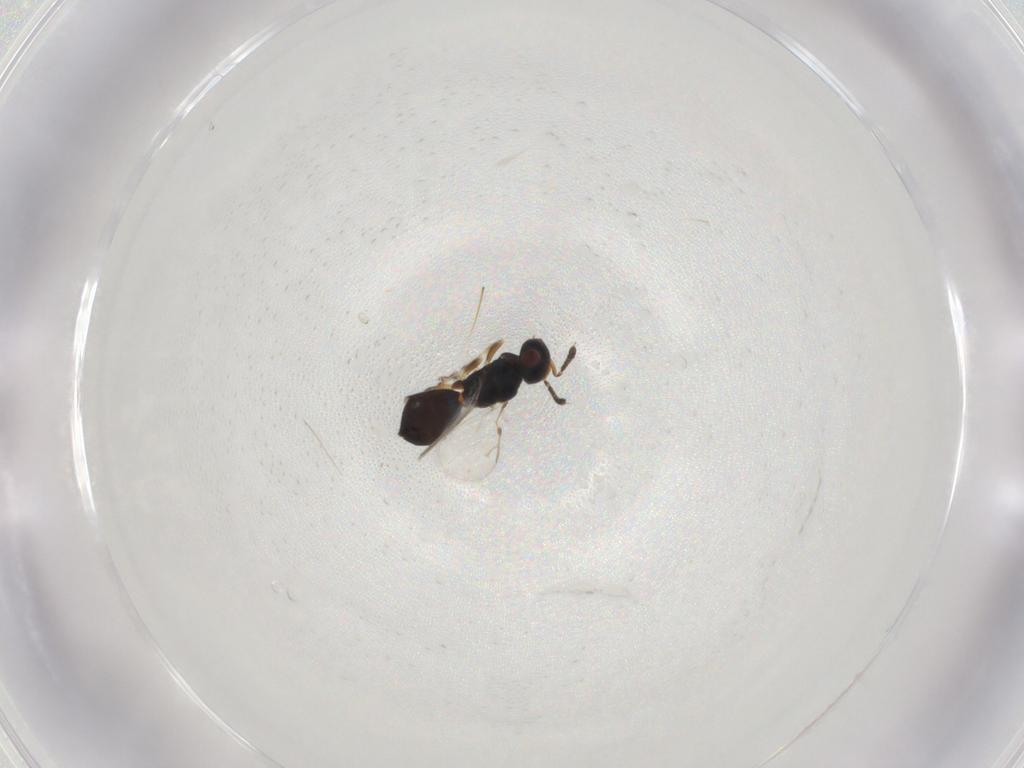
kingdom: Animalia
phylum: Arthropoda
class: Insecta
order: Hymenoptera
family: Pteromalidae
